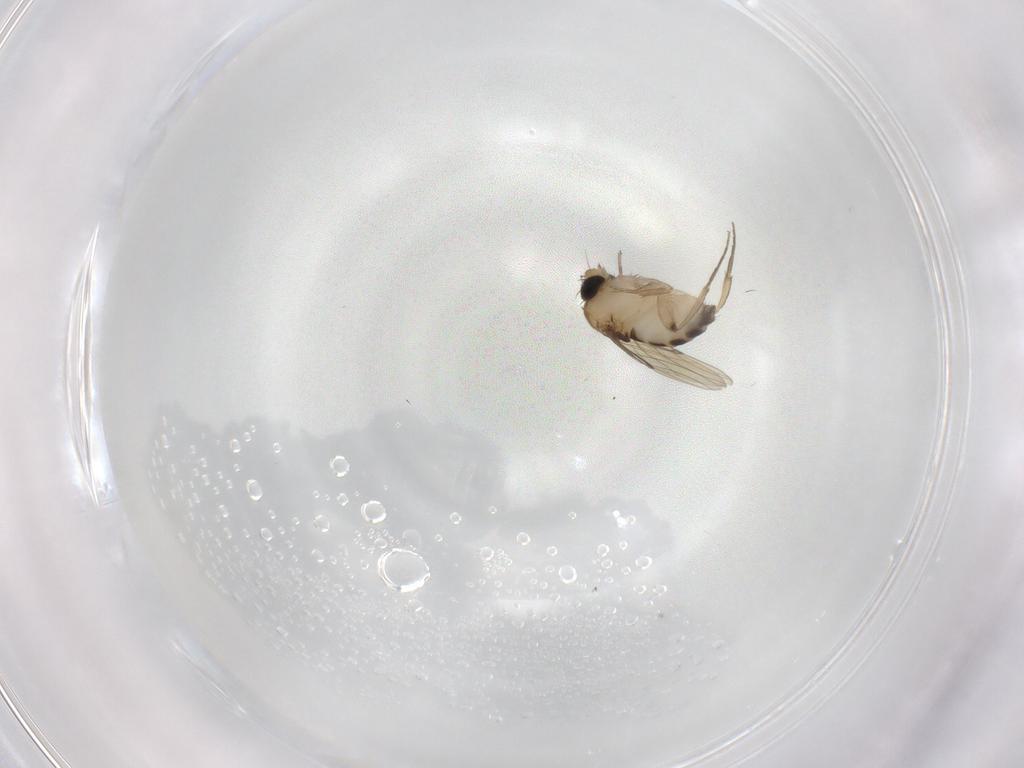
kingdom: Animalia
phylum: Arthropoda
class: Insecta
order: Diptera
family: Phoridae
